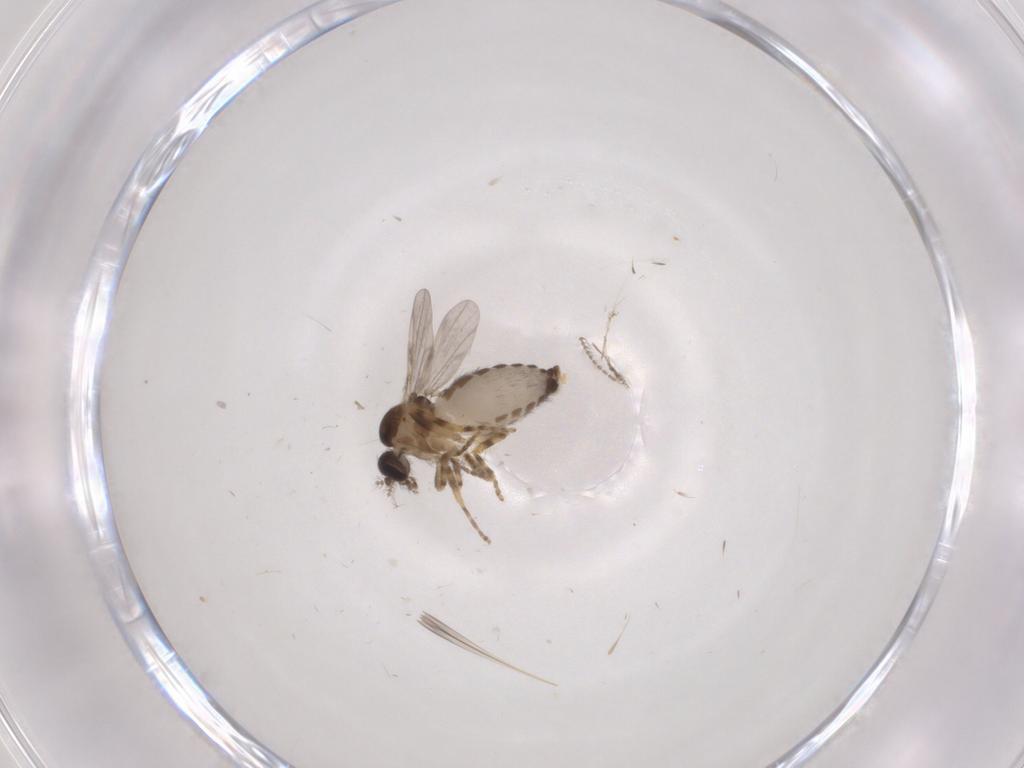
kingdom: Animalia
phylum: Arthropoda
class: Insecta
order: Diptera
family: Ceratopogonidae
